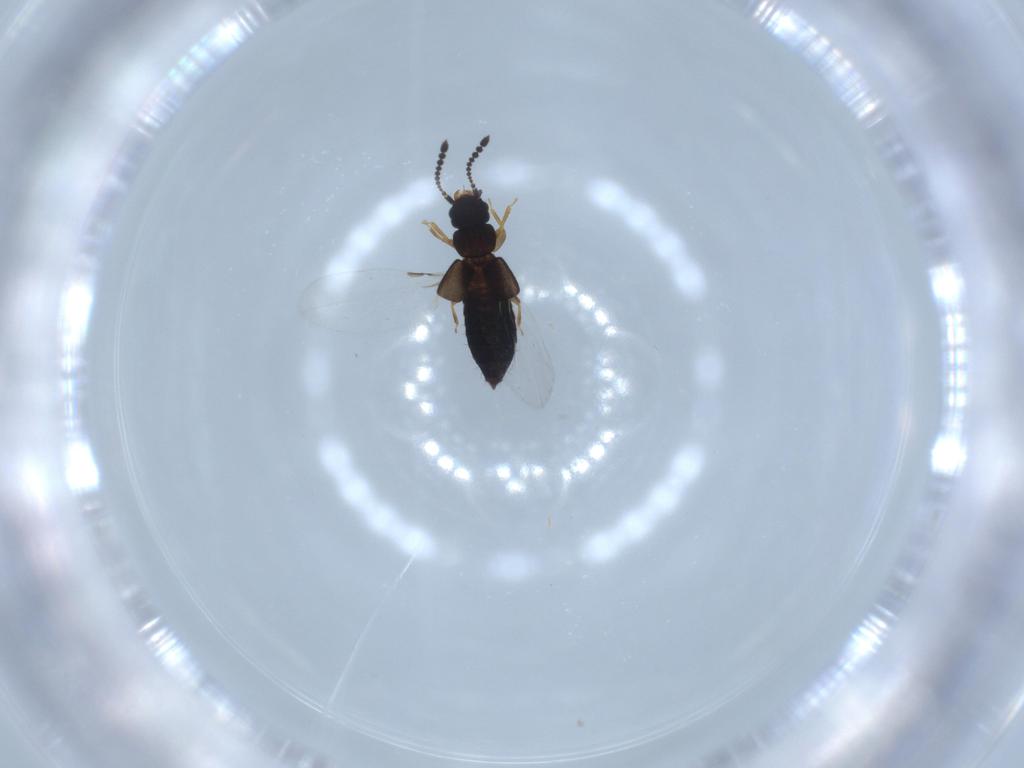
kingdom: Animalia
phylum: Arthropoda
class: Insecta
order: Coleoptera
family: Staphylinidae
